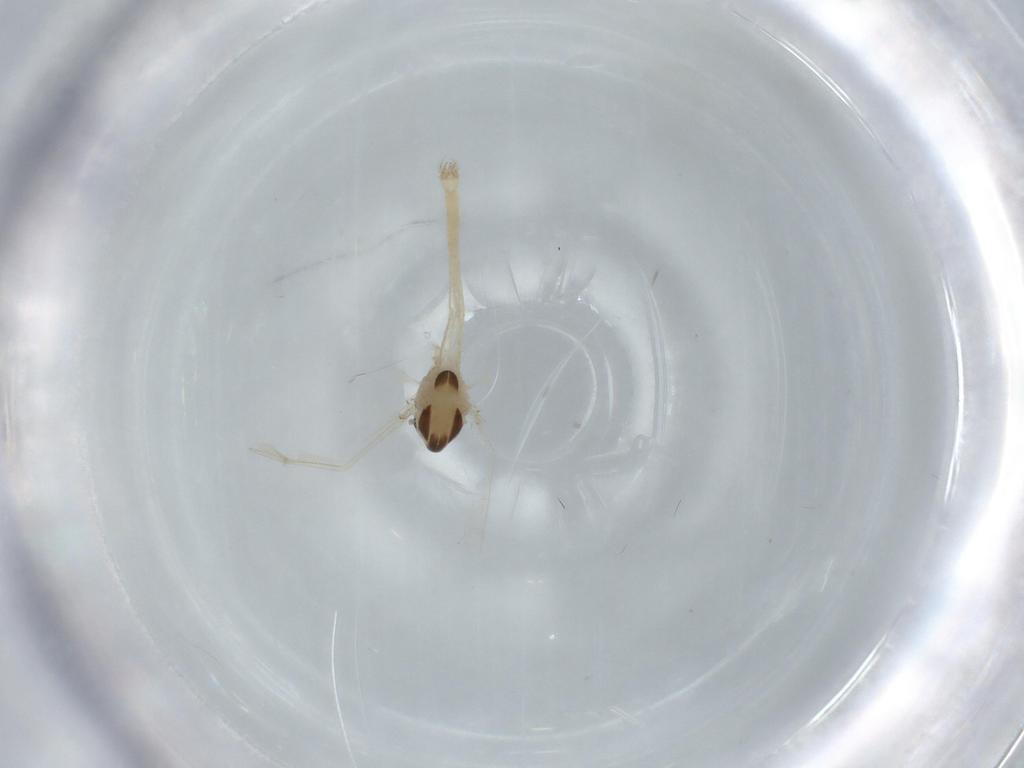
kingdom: Animalia
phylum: Arthropoda
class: Insecta
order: Diptera
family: Chironomidae
